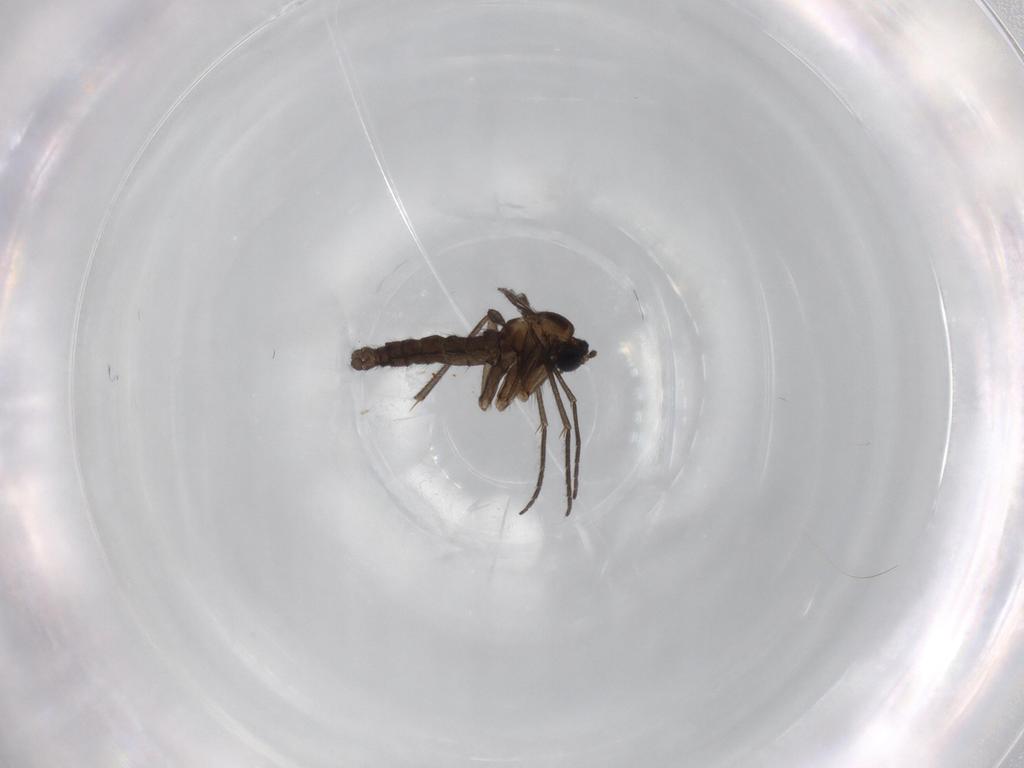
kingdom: Animalia
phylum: Arthropoda
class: Insecta
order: Diptera
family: Sciaridae
